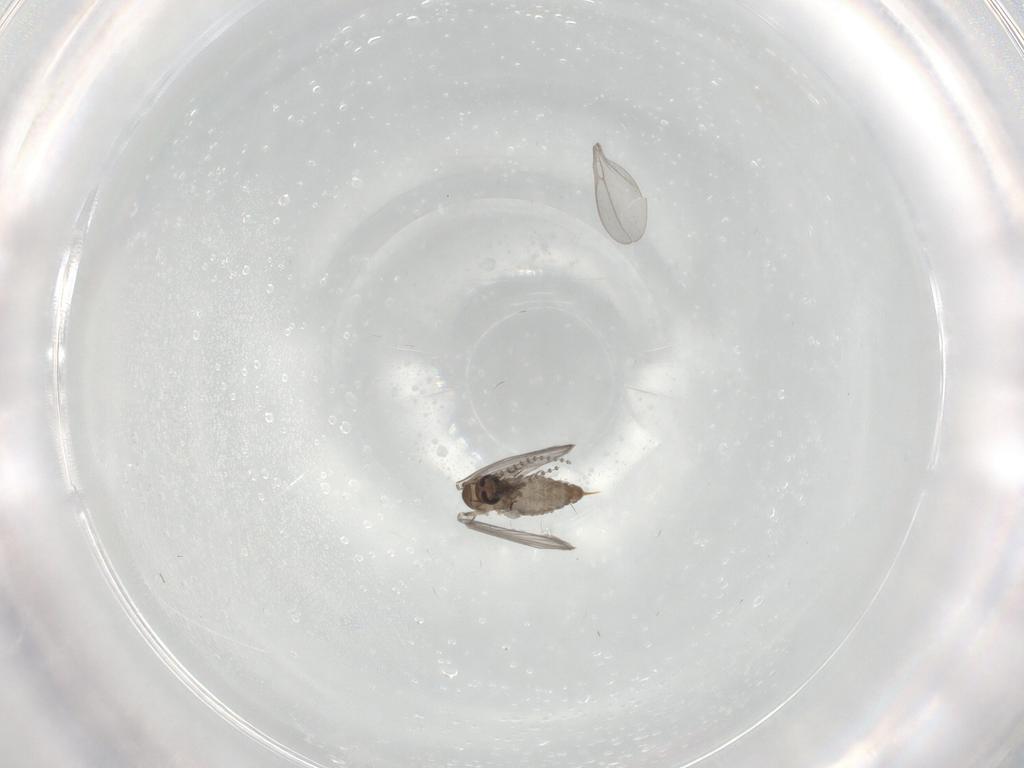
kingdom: Animalia
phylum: Arthropoda
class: Insecta
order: Diptera
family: Psychodidae
